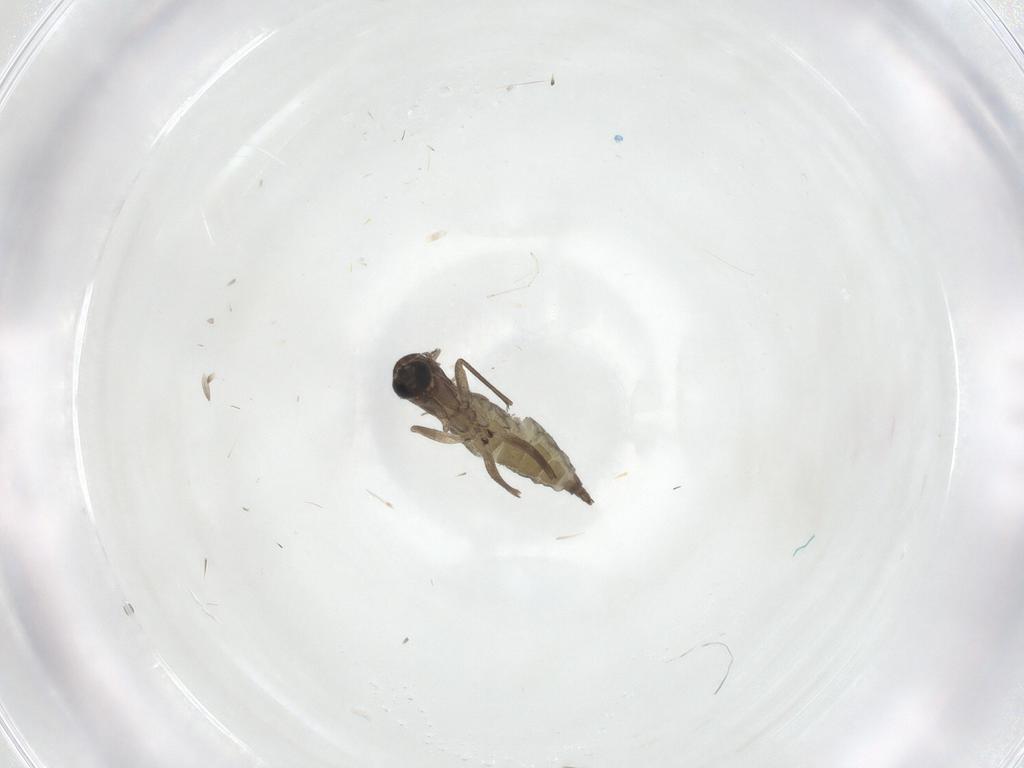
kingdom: Animalia
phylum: Arthropoda
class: Insecta
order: Diptera
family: Sciaridae
